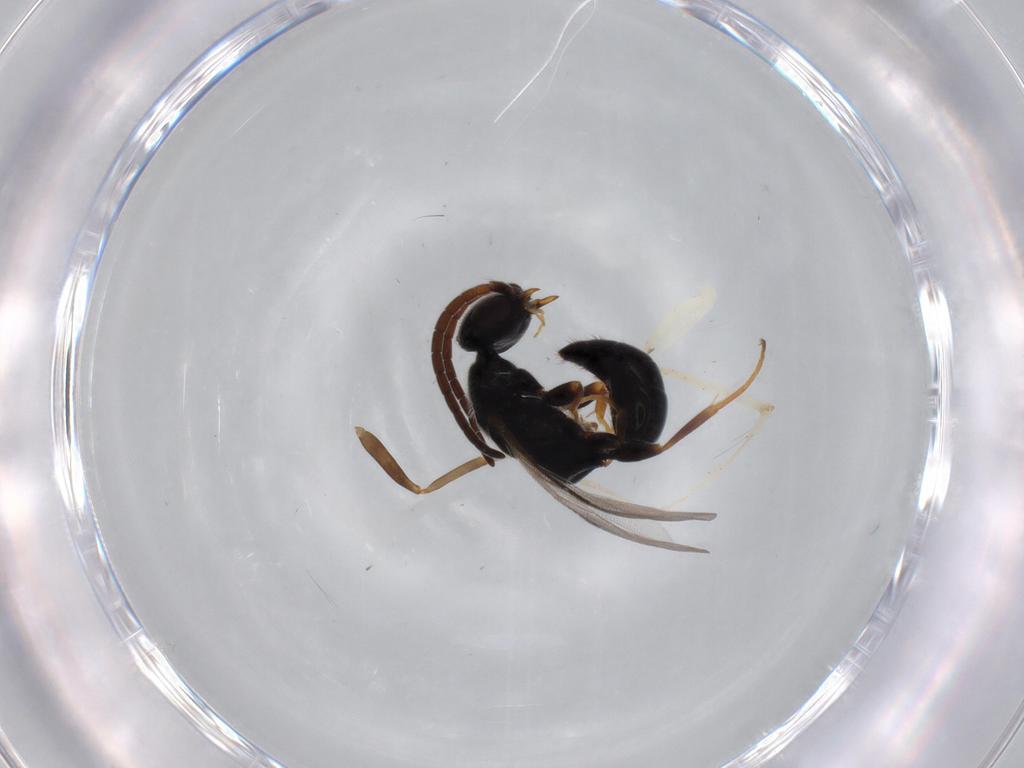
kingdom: Animalia
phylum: Arthropoda
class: Insecta
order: Hymenoptera
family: Bethylidae
